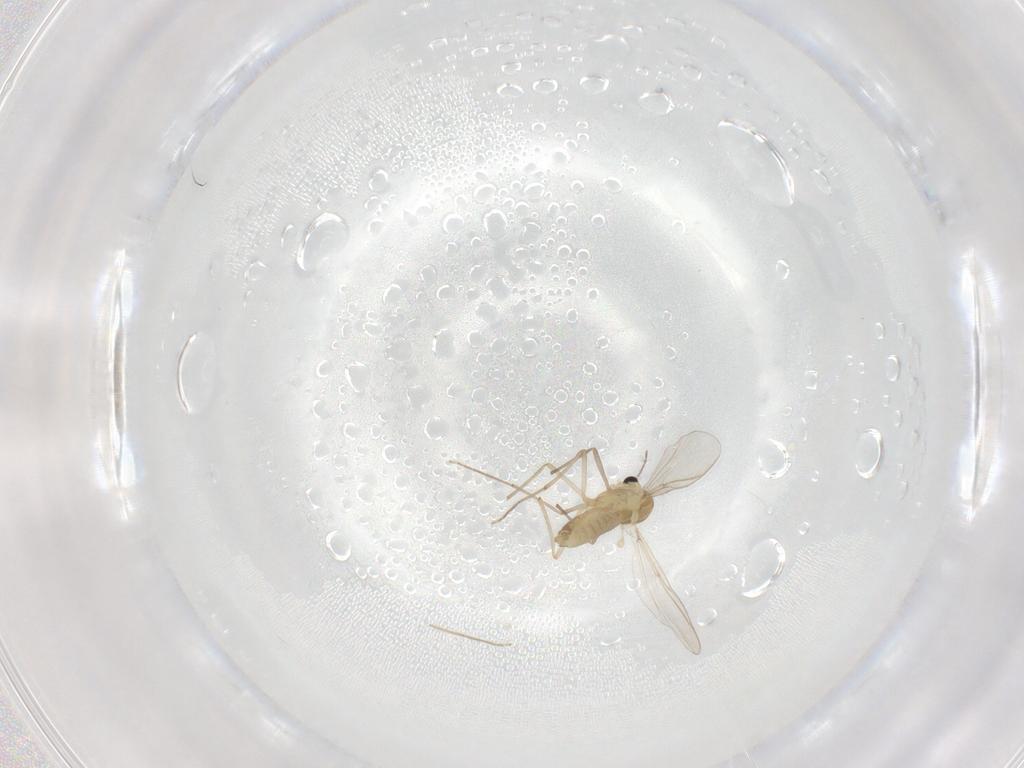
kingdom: Animalia
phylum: Arthropoda
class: Insecta
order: Diptera
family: Chironomidae
